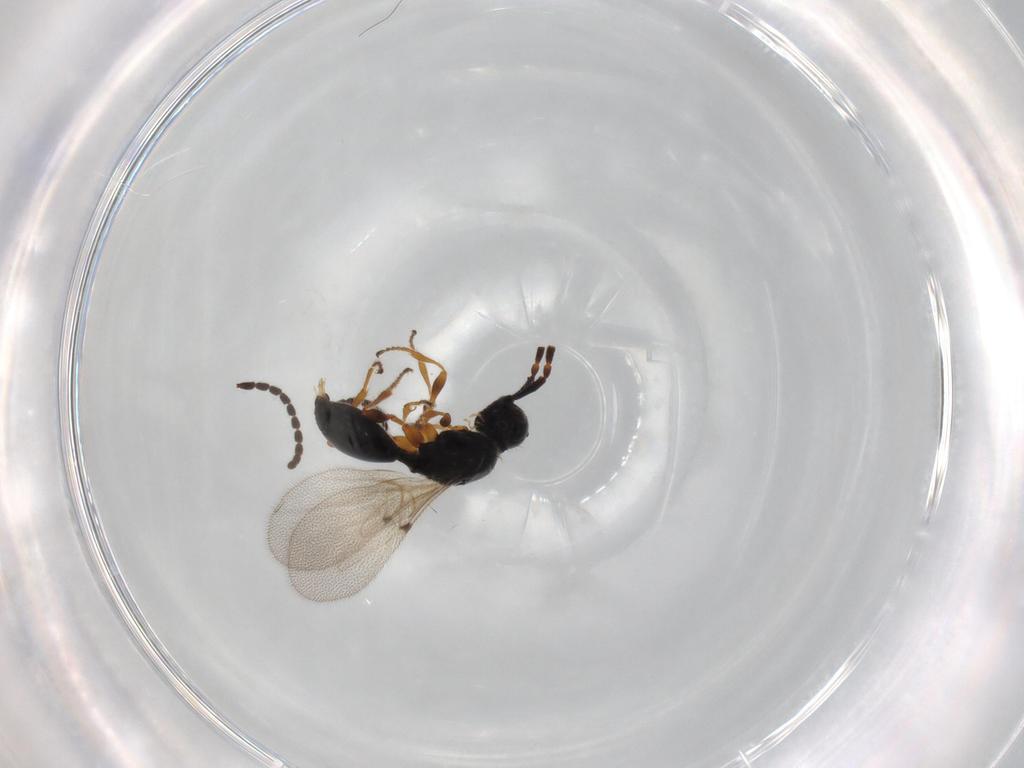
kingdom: Animalia
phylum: Arthropoda
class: Insecta
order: Hymenoptera
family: Diapriidae
